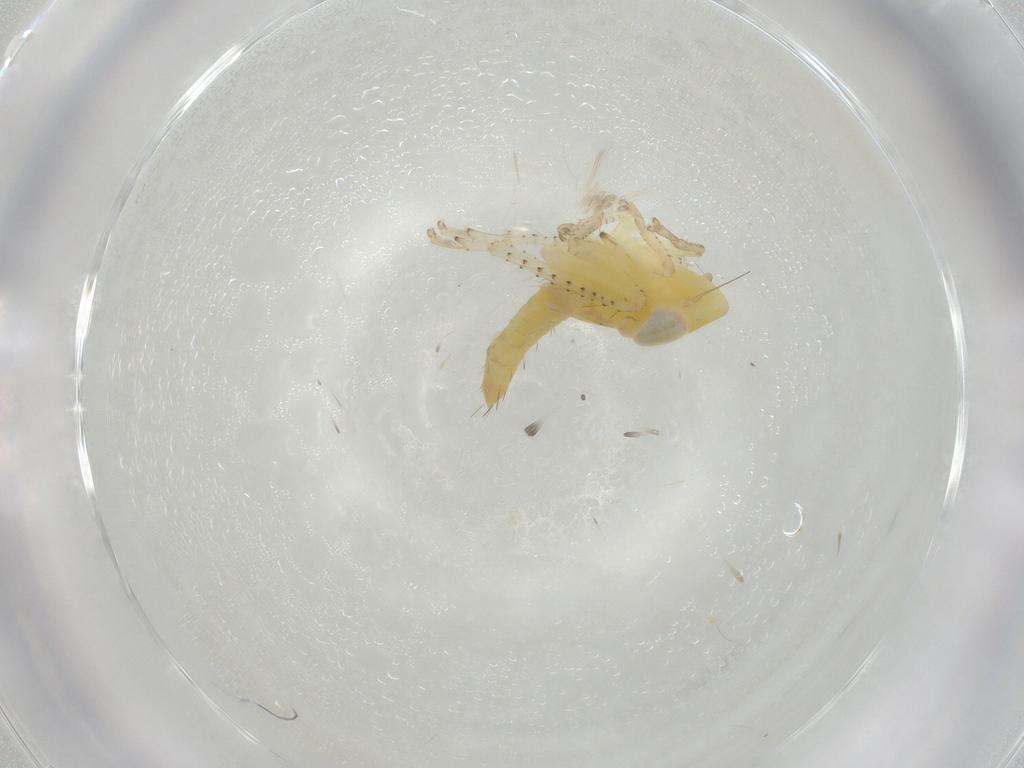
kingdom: Animalia
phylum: Arthropoda
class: Insecta
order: Hemiptera
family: Cicadellidae
